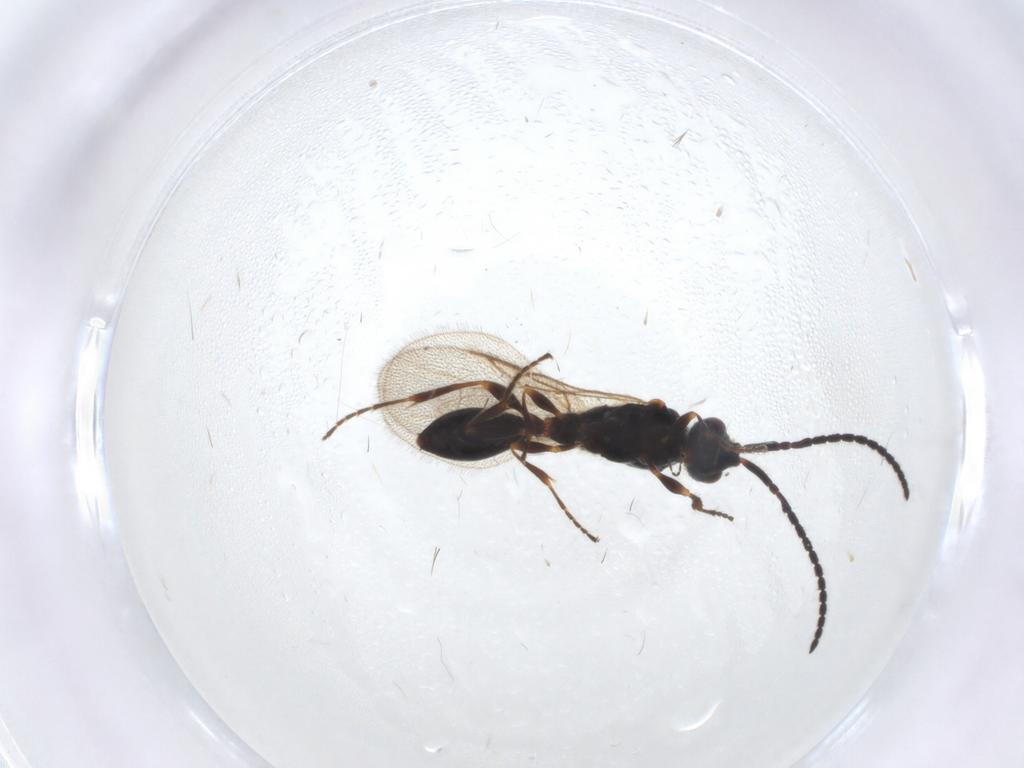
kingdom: Animalia
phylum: Arthropoda
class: Insecta
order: Hymenoptera
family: Diapriidae
